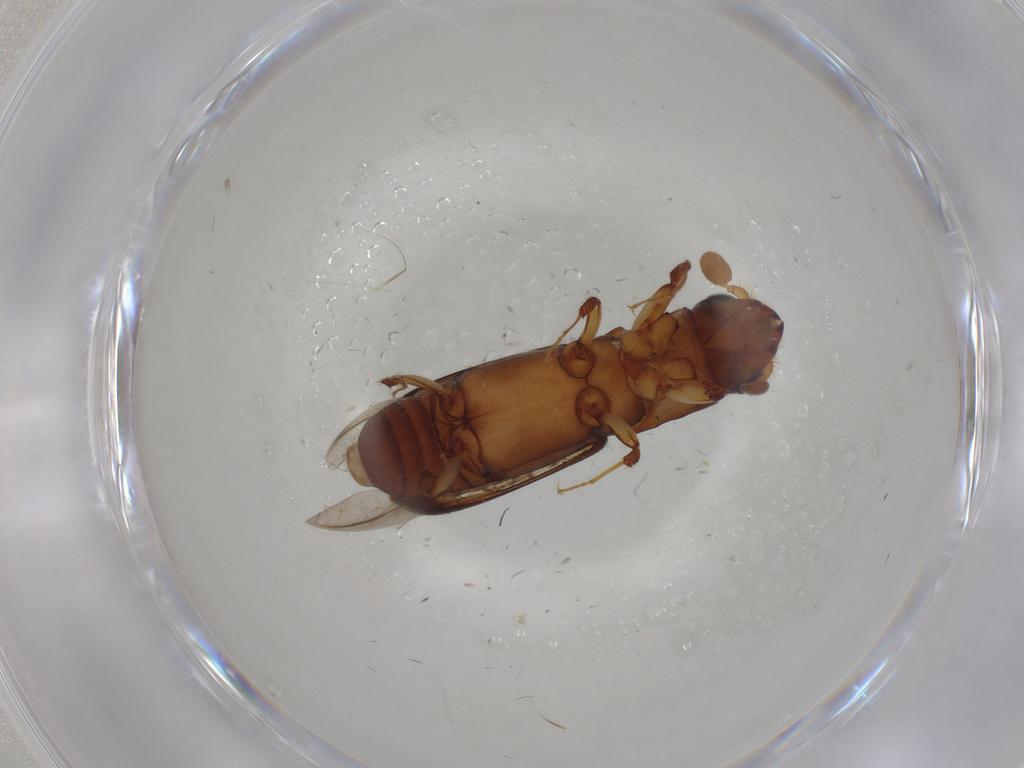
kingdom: Animalia
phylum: Arthropoda
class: Insecta
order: Coleoptera
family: Curculionidae
